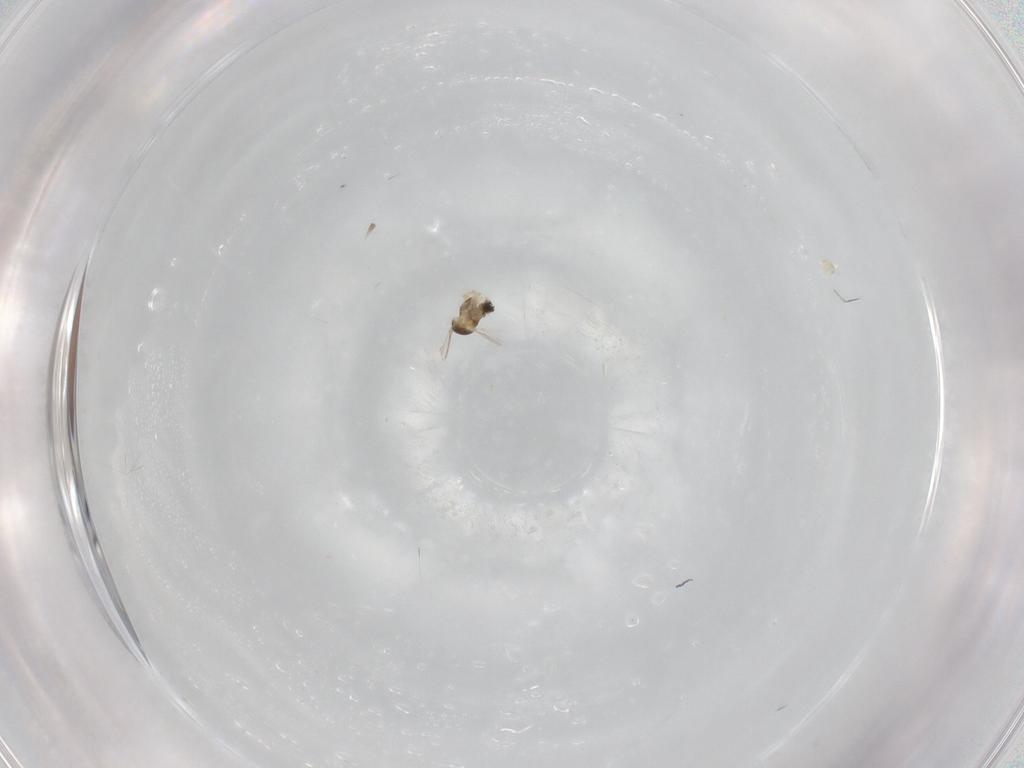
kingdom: Animalia
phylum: Arthropoda
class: Insecta
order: Diptera
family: Cecidomyiidae
